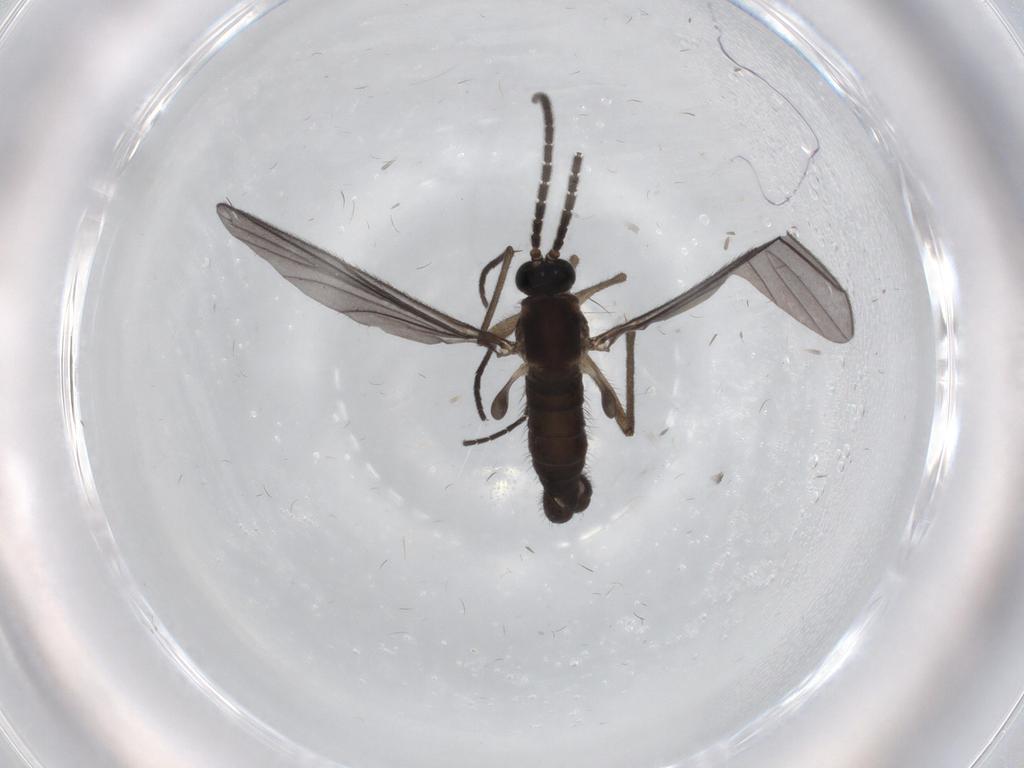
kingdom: Animalia
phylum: Arthropoda
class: Insecta
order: Diptera
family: Sciaridae
